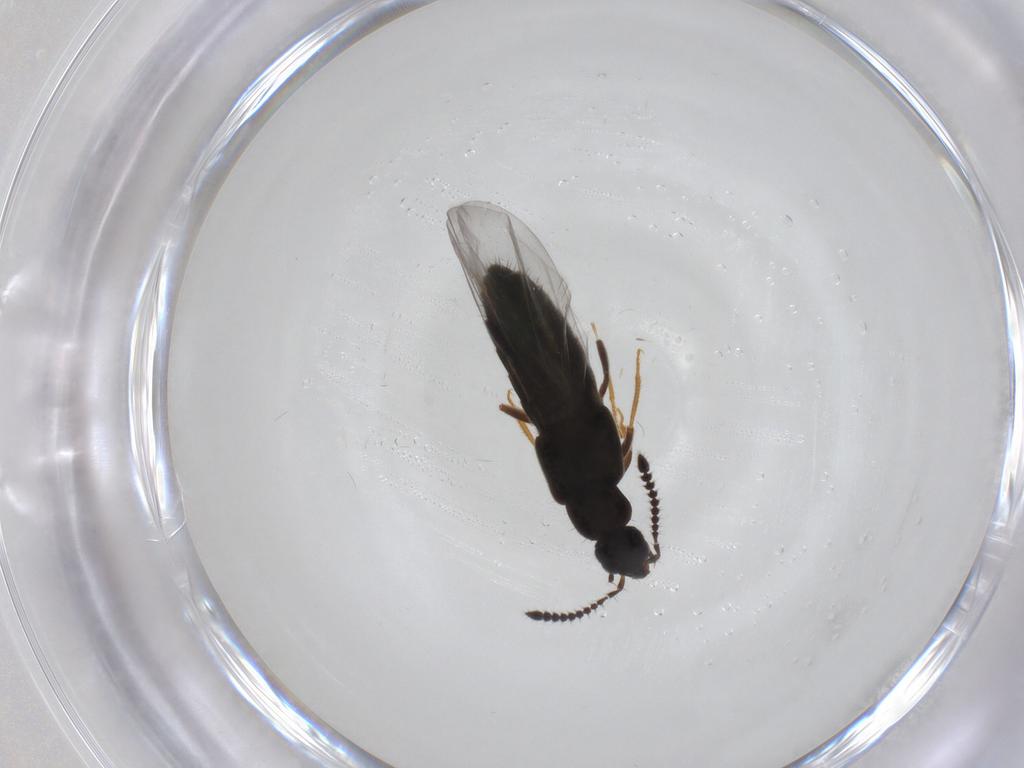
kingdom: Animalia
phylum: Arthropoda
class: Insecta
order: Coleoptera
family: Staphylinidae
